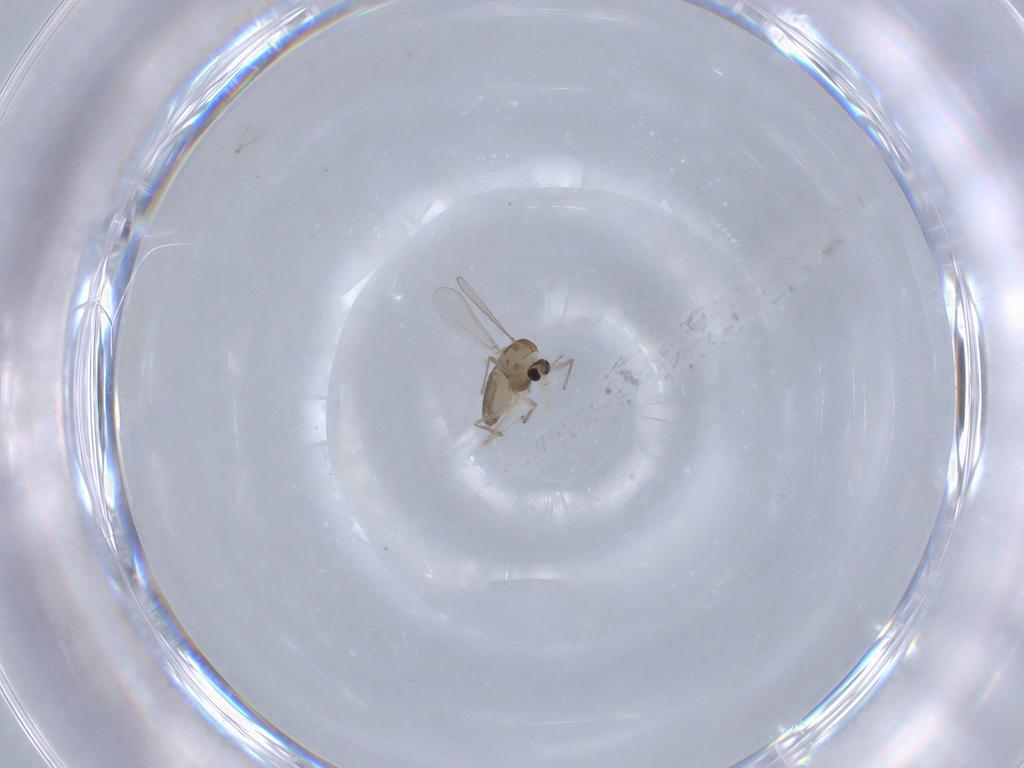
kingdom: Animalia
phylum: Arthropoda
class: Insecta
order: Diptera
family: Chironomidae
